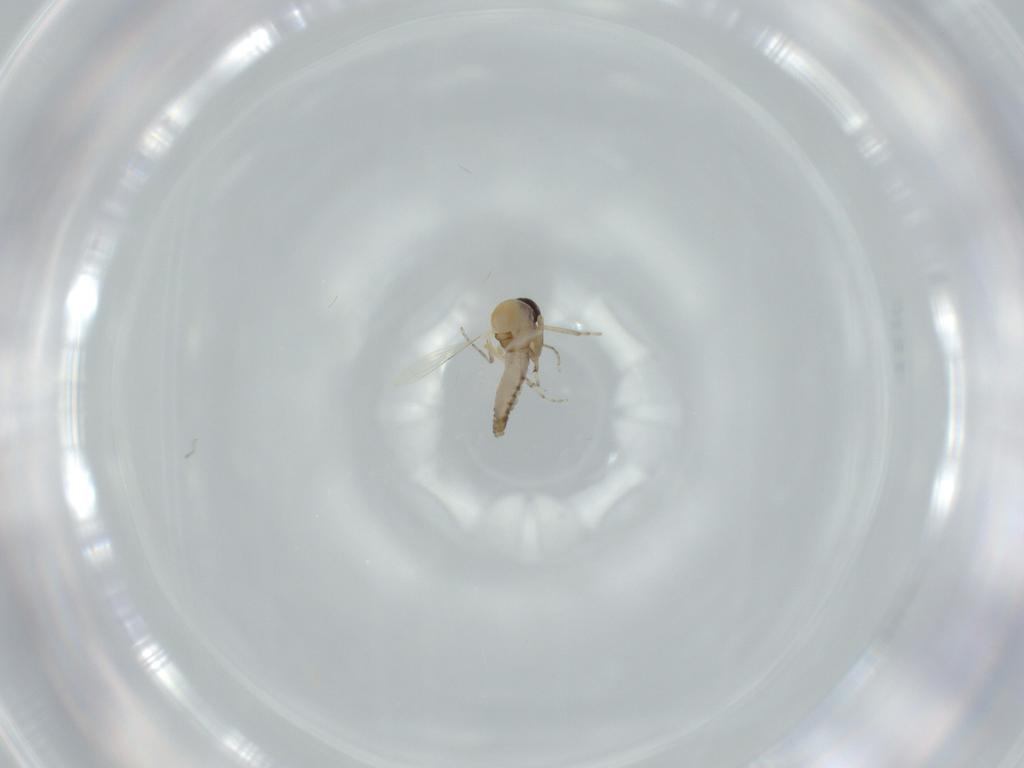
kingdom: Animalia
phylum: Arthropoda
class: Insecta
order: Diptera
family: Ceratopogonidae
